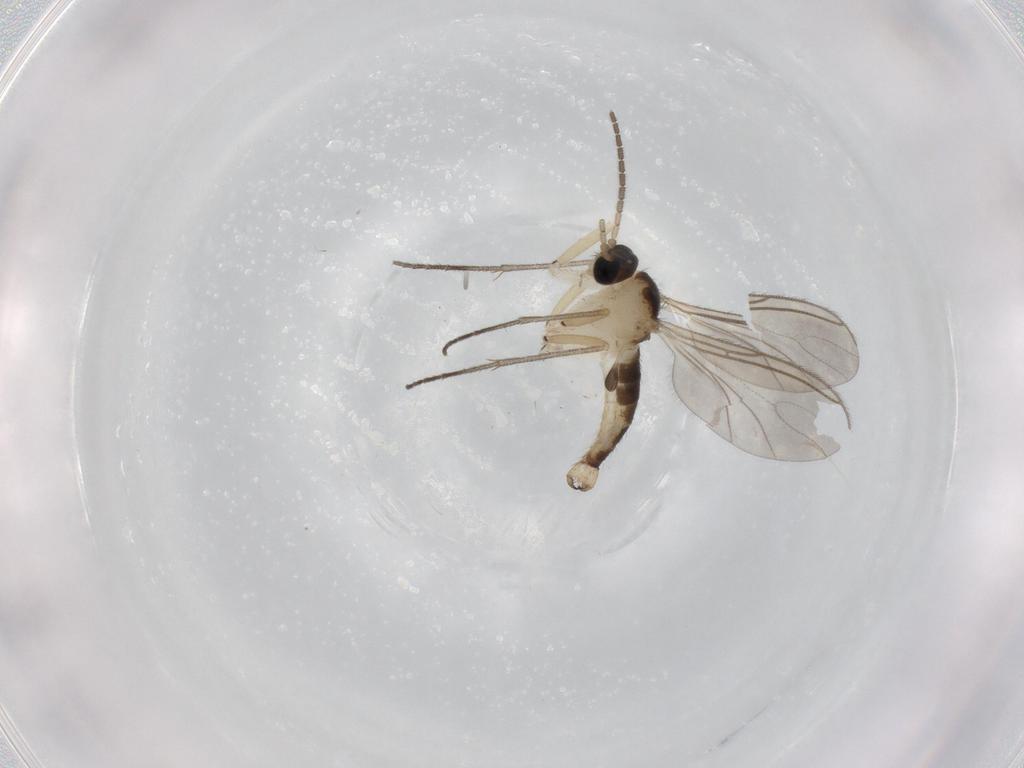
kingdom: Animalia
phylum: Arthropoda
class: Insecta
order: Diptera
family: Sciaridae
